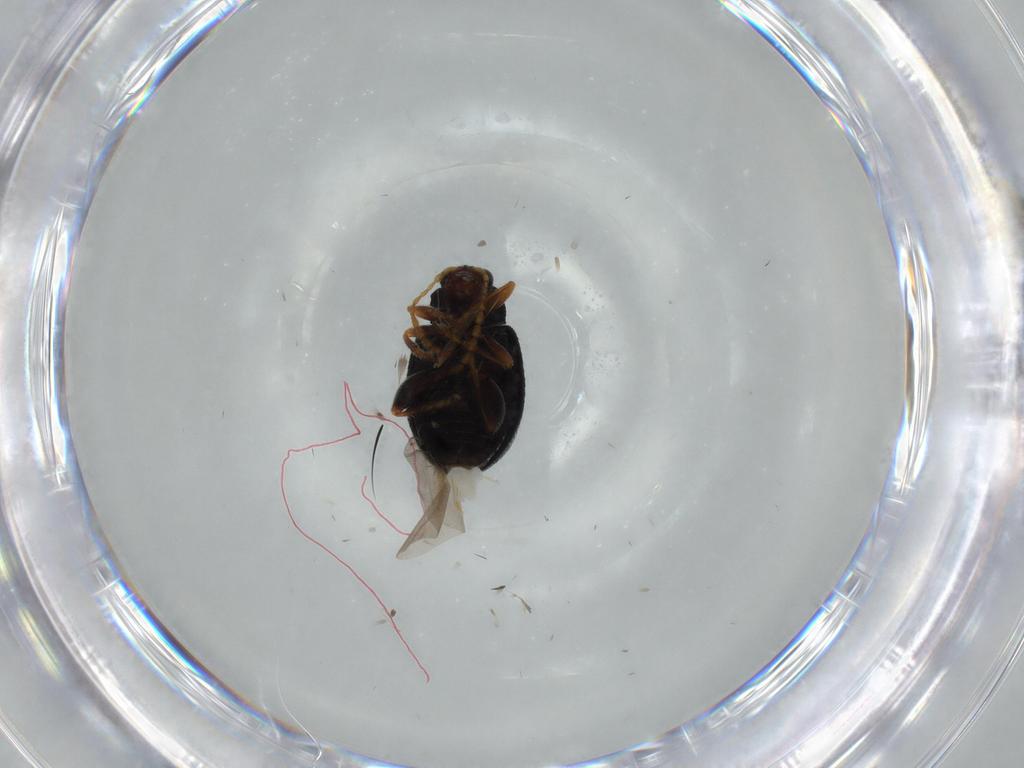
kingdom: Animalia
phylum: Arthropoda
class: Insecta
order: Coleoptera
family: Chrysomelidae
